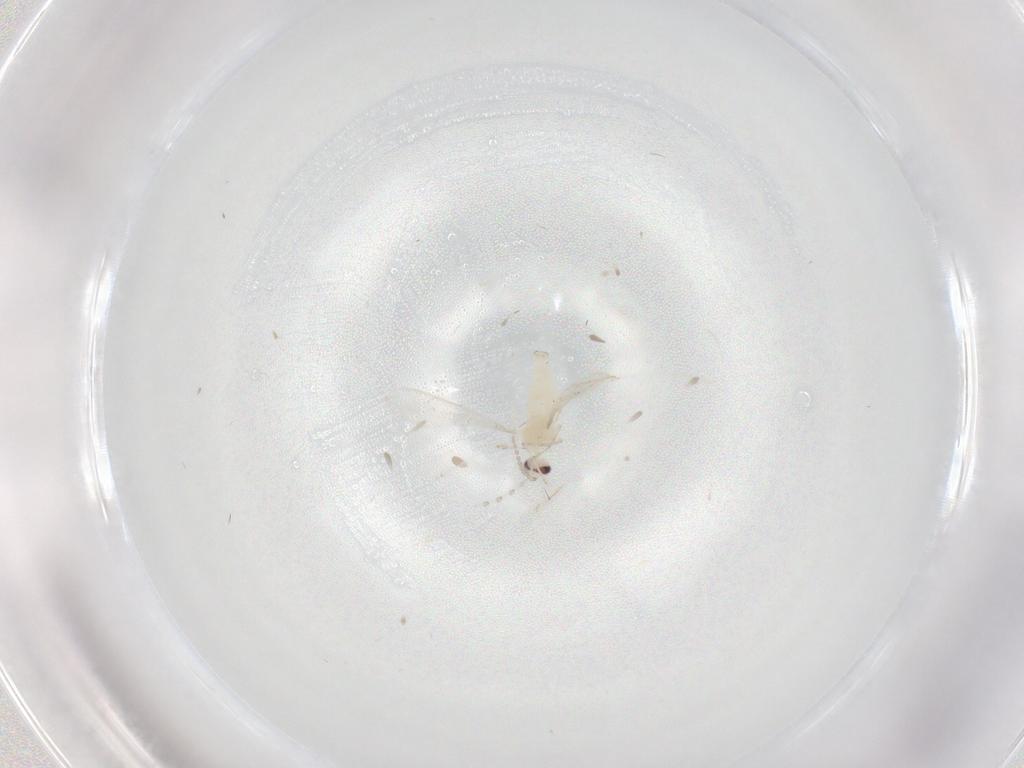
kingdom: Animalia
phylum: Arthropoda
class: Insecta
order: Diptera
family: Cecidomyiidae
